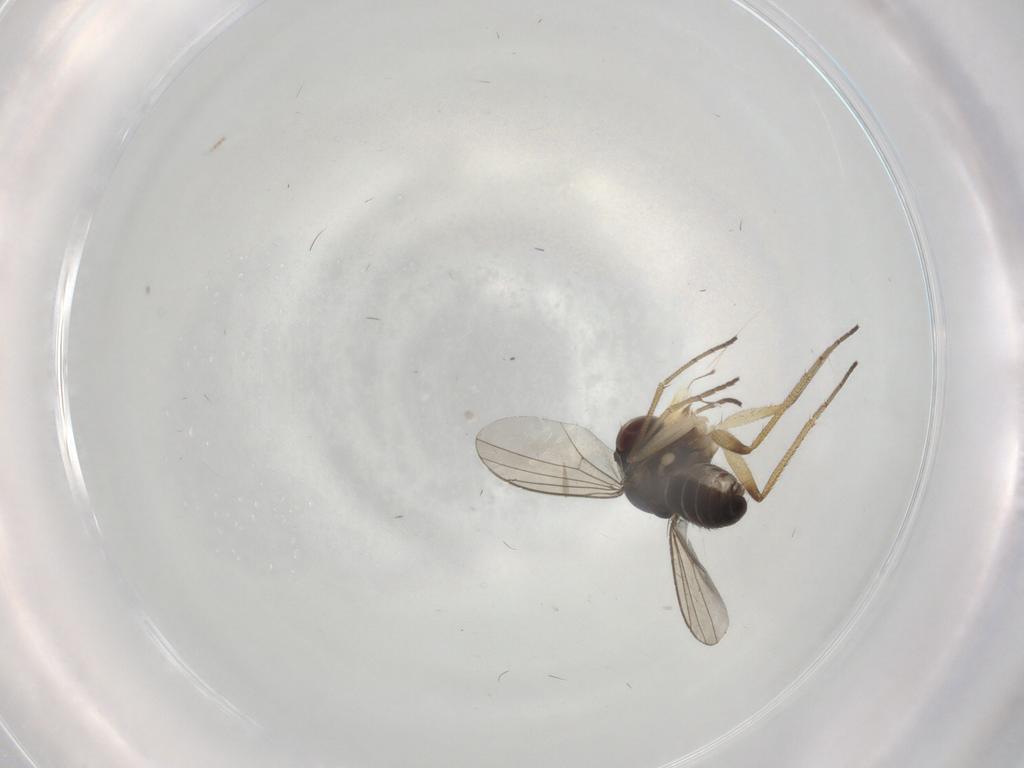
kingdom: Animalia
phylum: Arthropoda
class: Insecta
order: Diptera
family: Dolichopodidae
